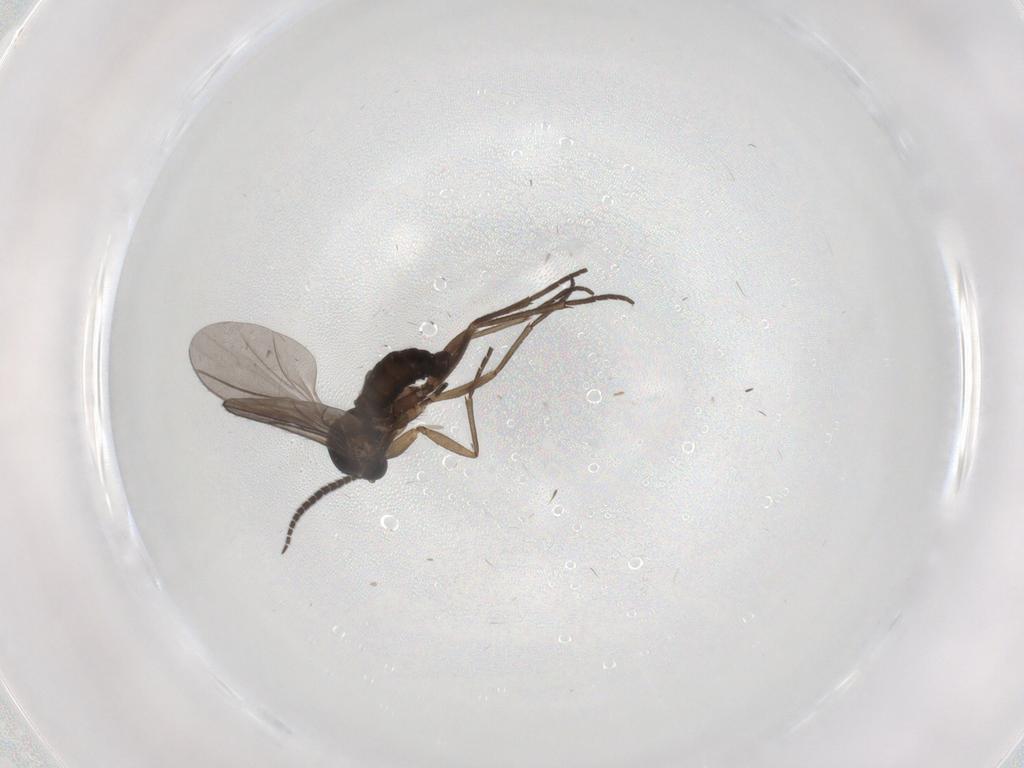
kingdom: Animalia
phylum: Arthropoda
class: Insecta
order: Diptera
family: Sciaridae
